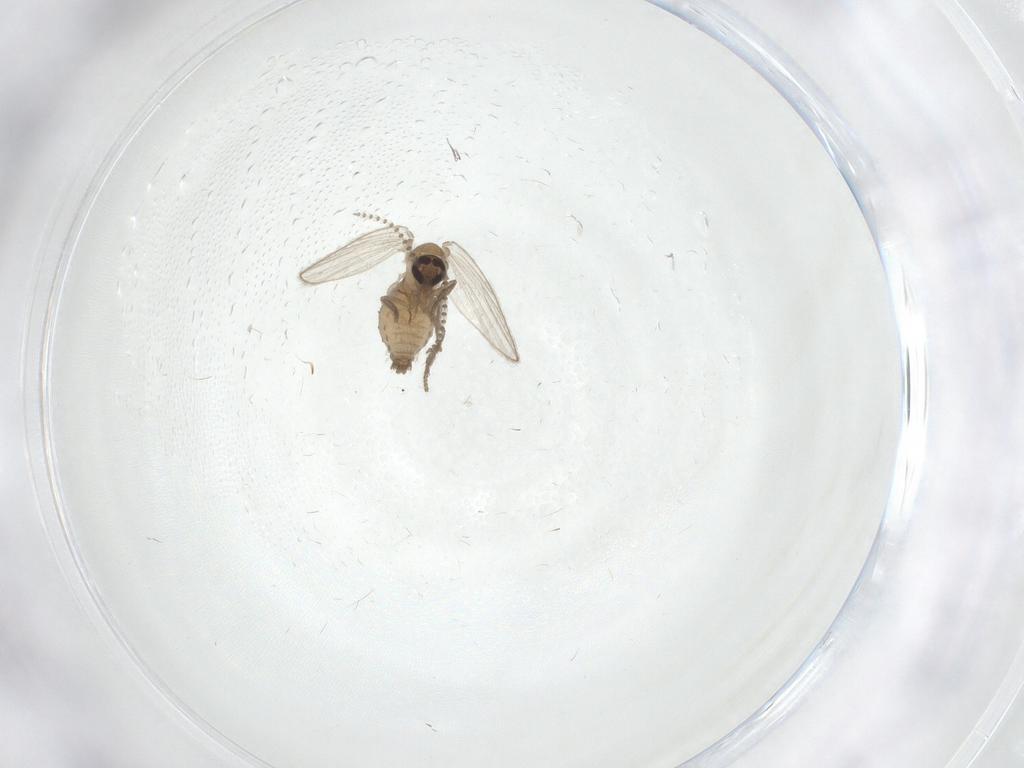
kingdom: Animalia
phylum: Arthropoda
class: Insecta
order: Diptera
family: Psychodidae
